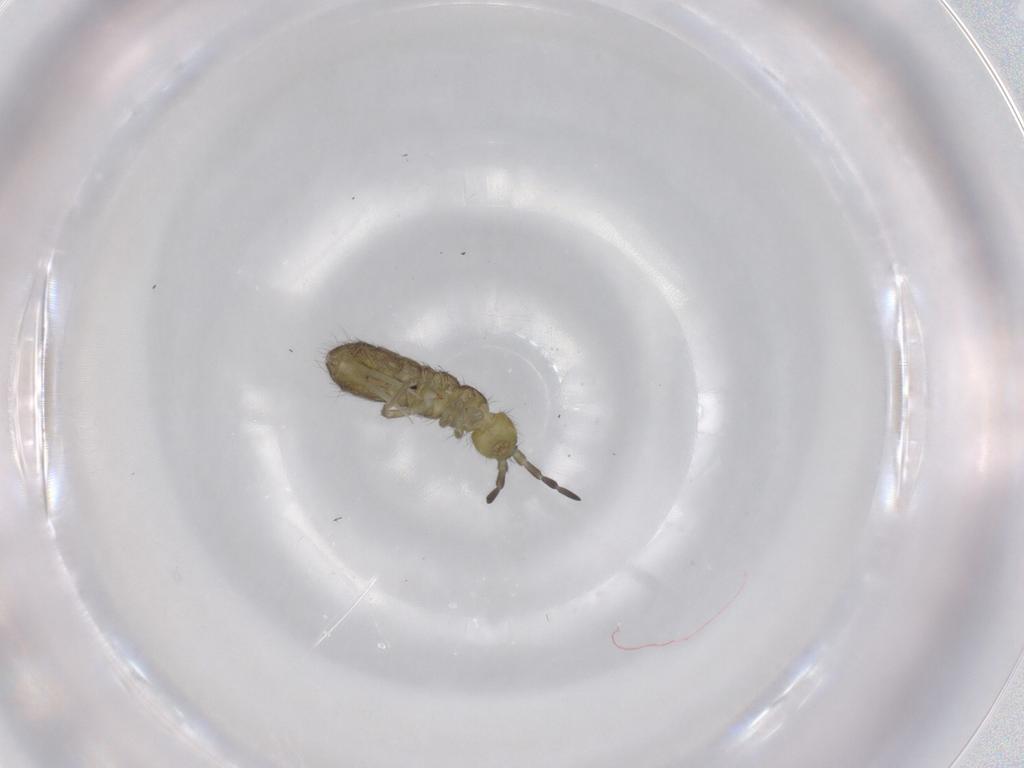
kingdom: Animalia
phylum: Arthropoda
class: Collembola
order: Entomobryomorpha
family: Isotomidae
